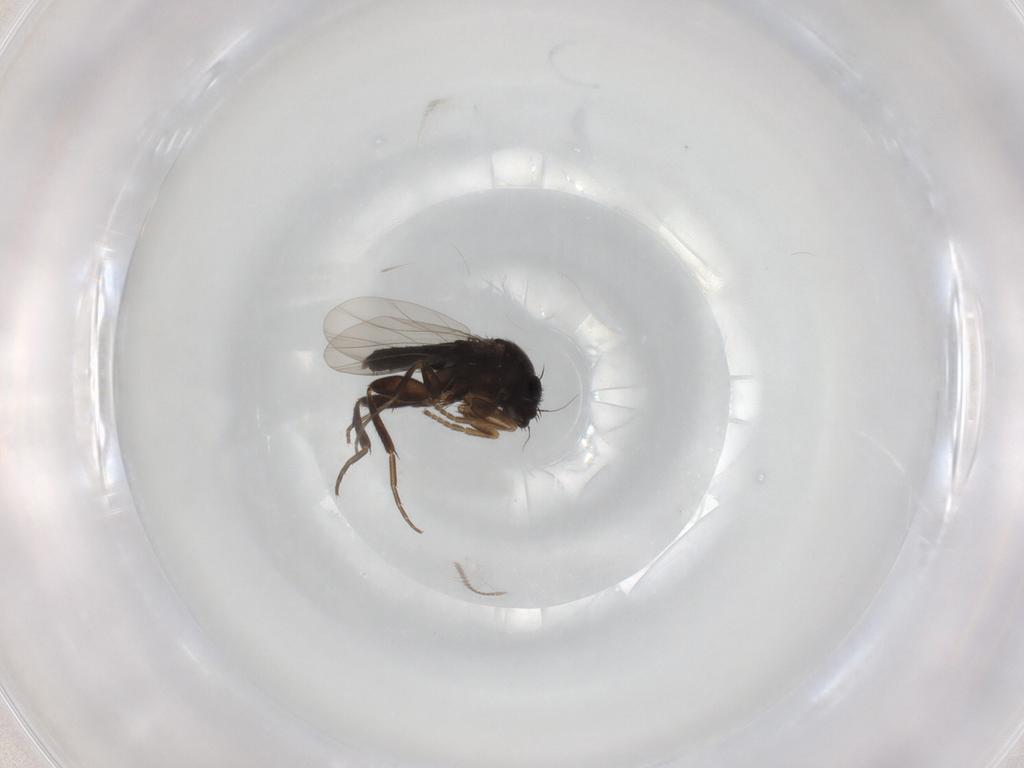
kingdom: Animalia
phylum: Arthropoda
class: Insecta
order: Diptera
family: Phoridae
